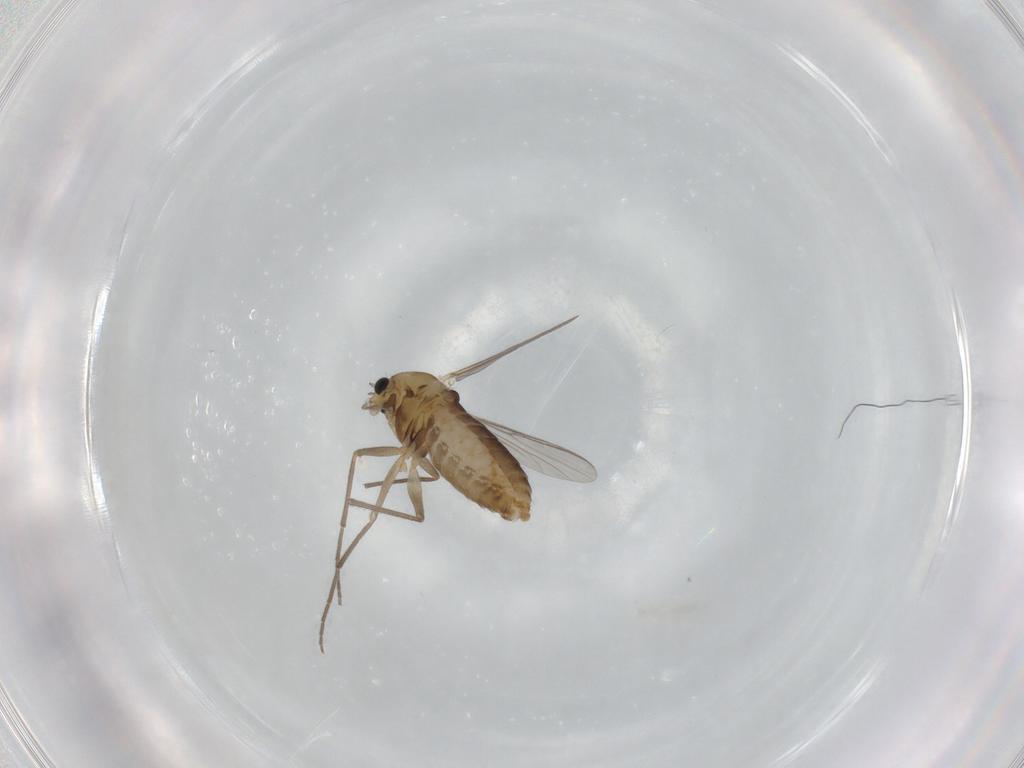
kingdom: Animalia
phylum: Arthropoda
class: Insecta
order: Diptera
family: Chironomidae
